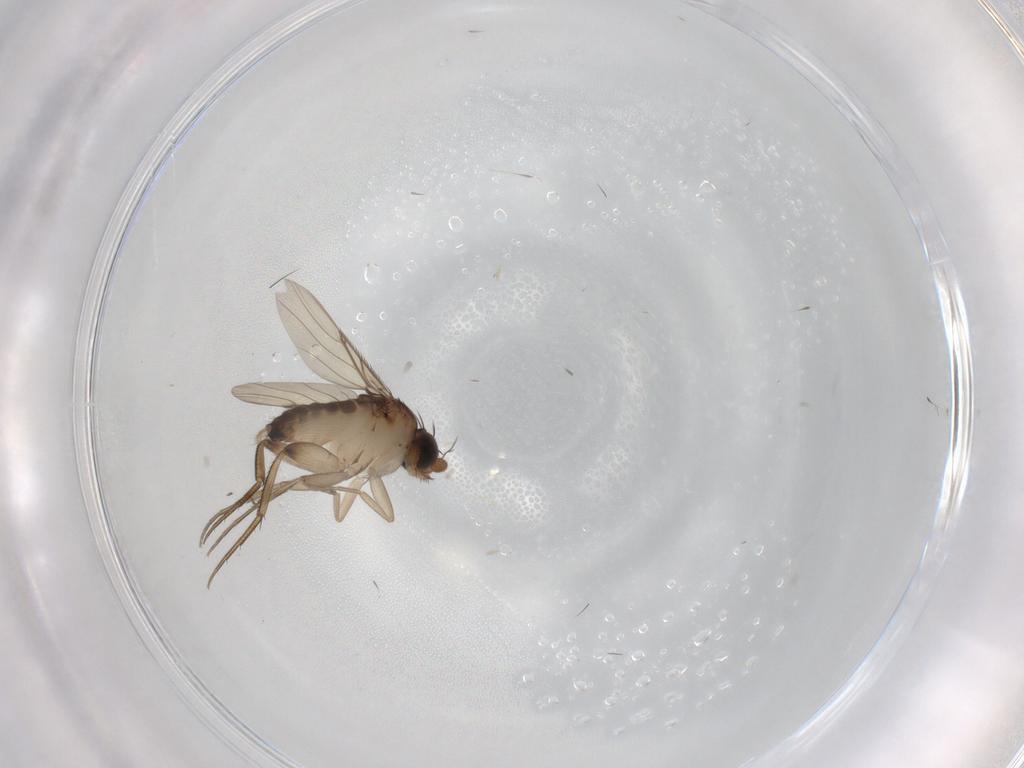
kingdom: Animalia
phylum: Arthropoda
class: Insecta
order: Diptera
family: Phoridae
